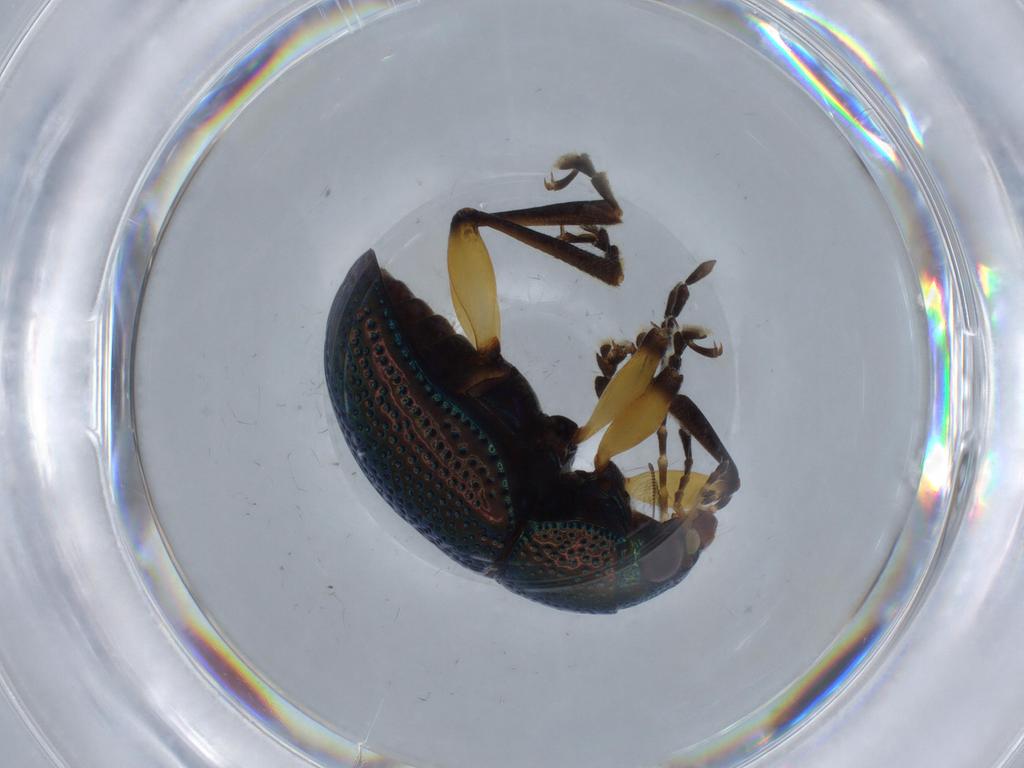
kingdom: Animalia
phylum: Arthropoda
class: Insecta
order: Coleoptera
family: Chrysomelidae
